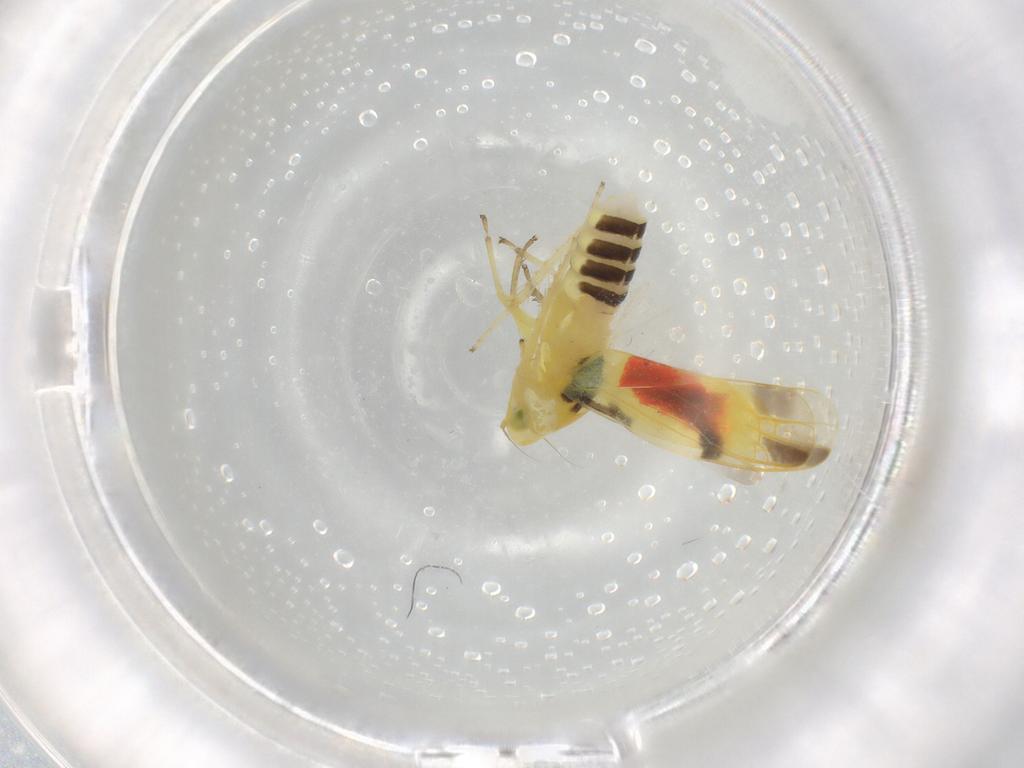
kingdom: Animalia
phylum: Arthropoda
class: Insecta
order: Hemiptera
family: Cicadellidae
